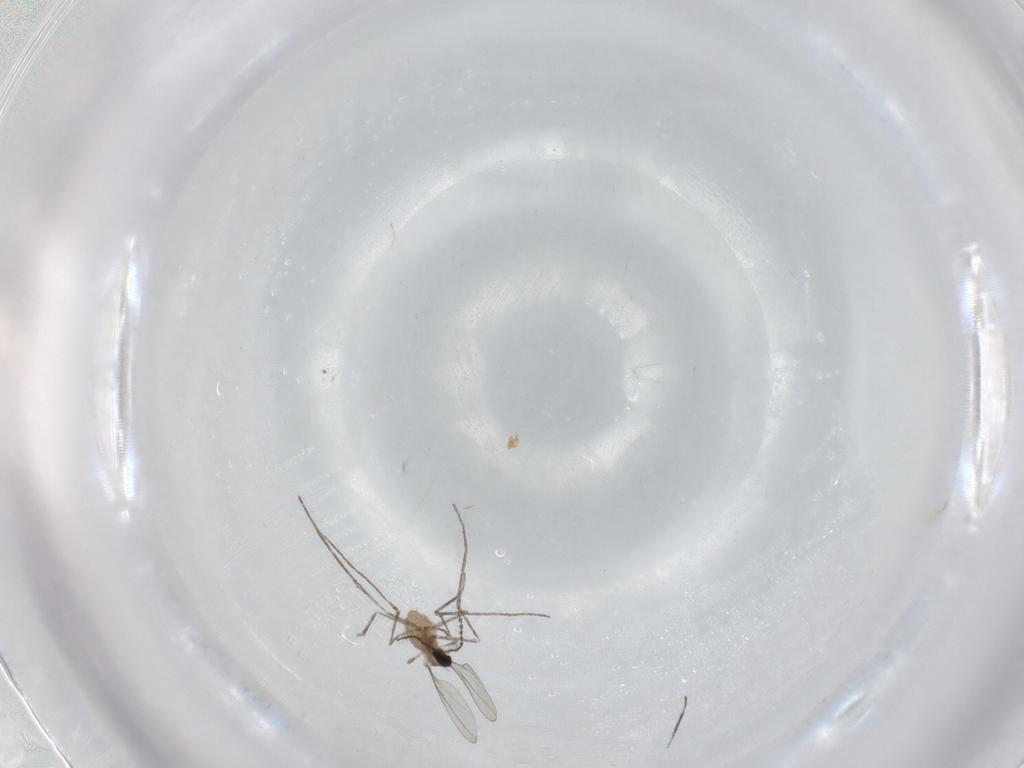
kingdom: Animalia
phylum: Arthropoda
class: Insecta
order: Diptera
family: Cecidomyiidae
